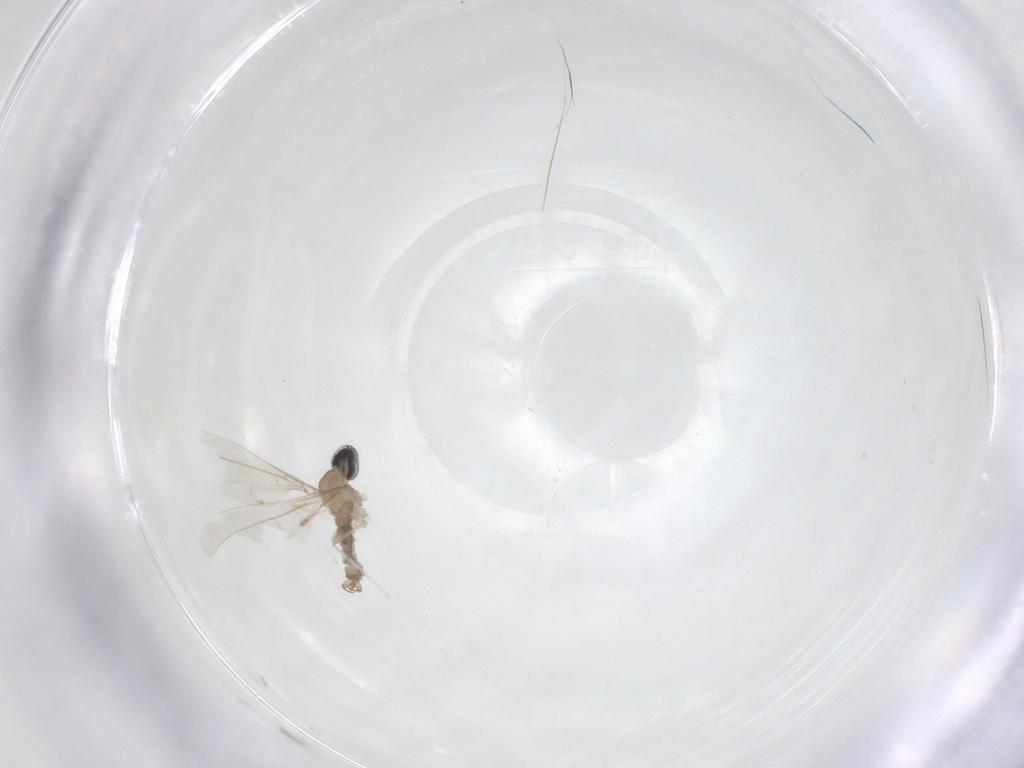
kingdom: Animalia
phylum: Arthropoda
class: Insecta
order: Diptera
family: Cecidomyiidae
